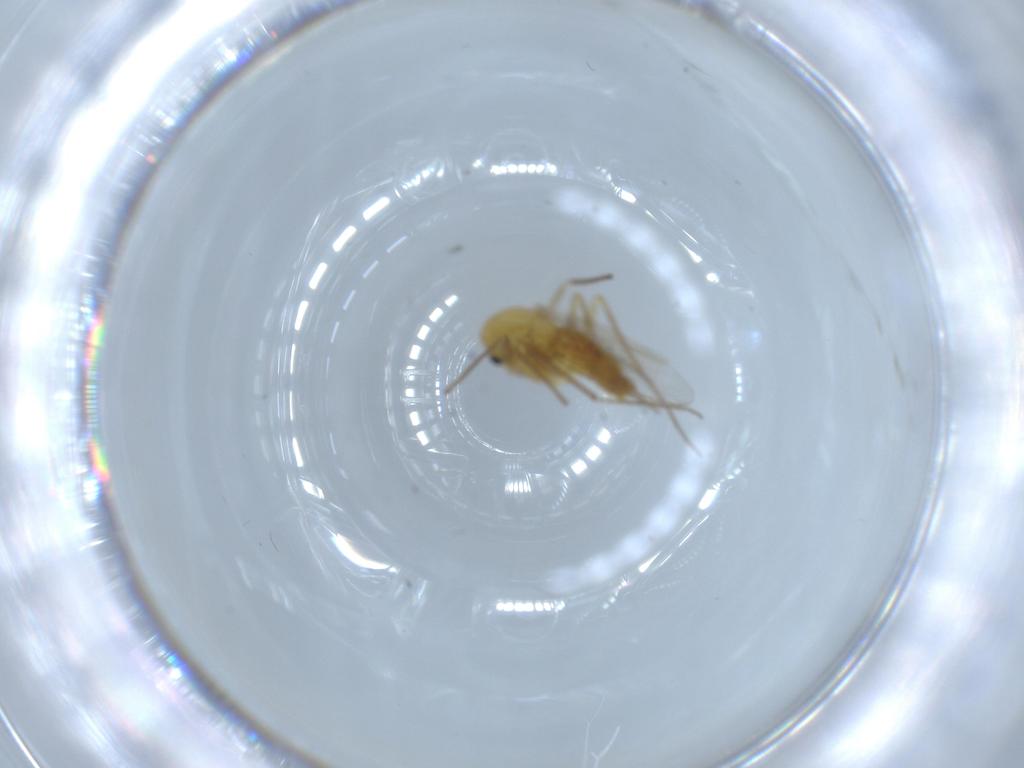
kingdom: Animalia
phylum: Arthropoda
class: Insecta
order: Diptera
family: Chironomidae
